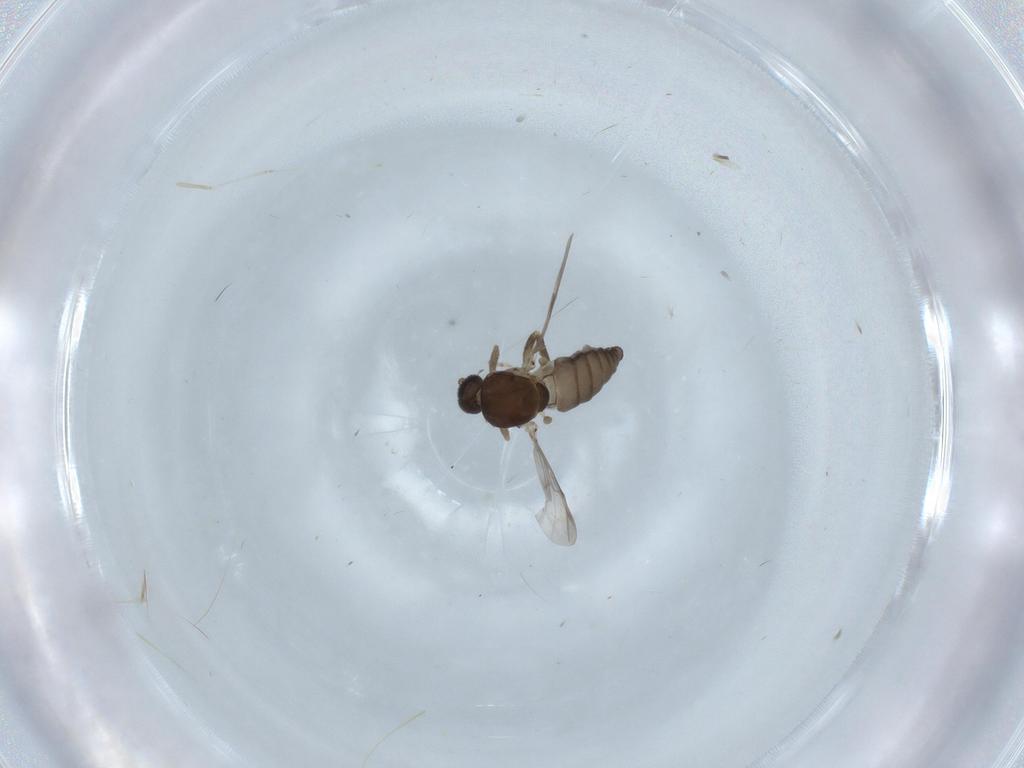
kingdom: Animalia
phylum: Arthropoda
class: Insecta
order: Diptera
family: Ceratopogonidae
